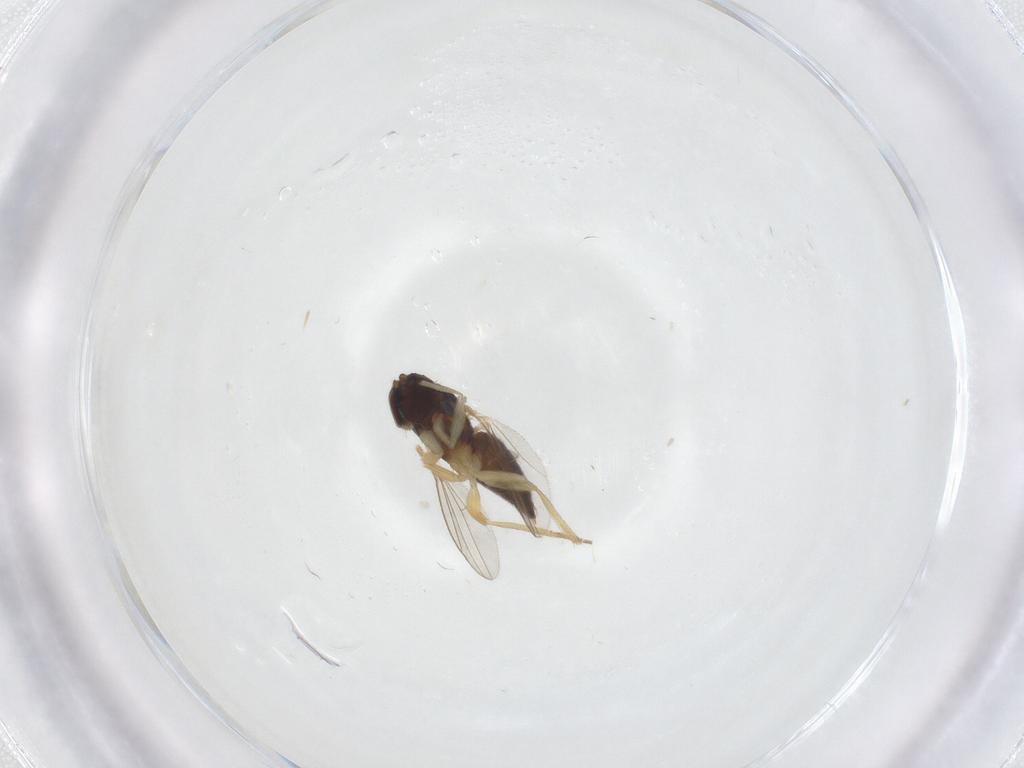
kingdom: Animalia
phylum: Arthropoda
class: Insecta
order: Diptera
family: Dolichopodidae
